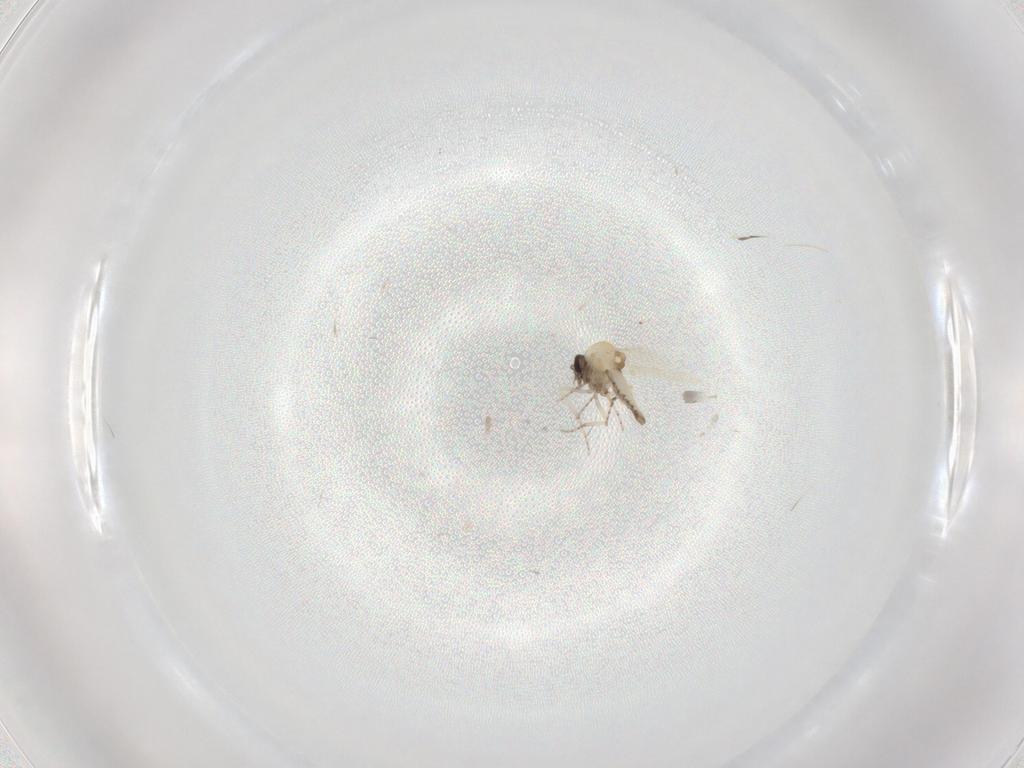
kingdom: Animalia
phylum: Arthropoda
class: Insecta
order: Diptera
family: Ceratopogonidae
